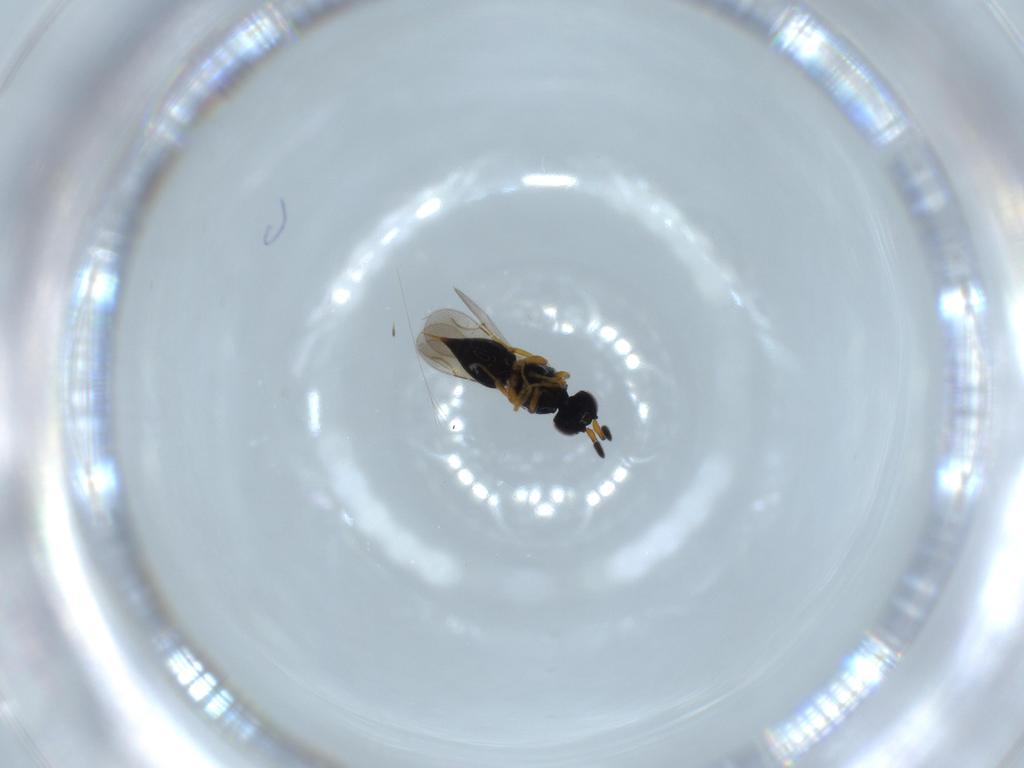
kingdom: Animalia
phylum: Arthropoda
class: Insecta
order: Hymenoptera
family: Ceraphronidae
